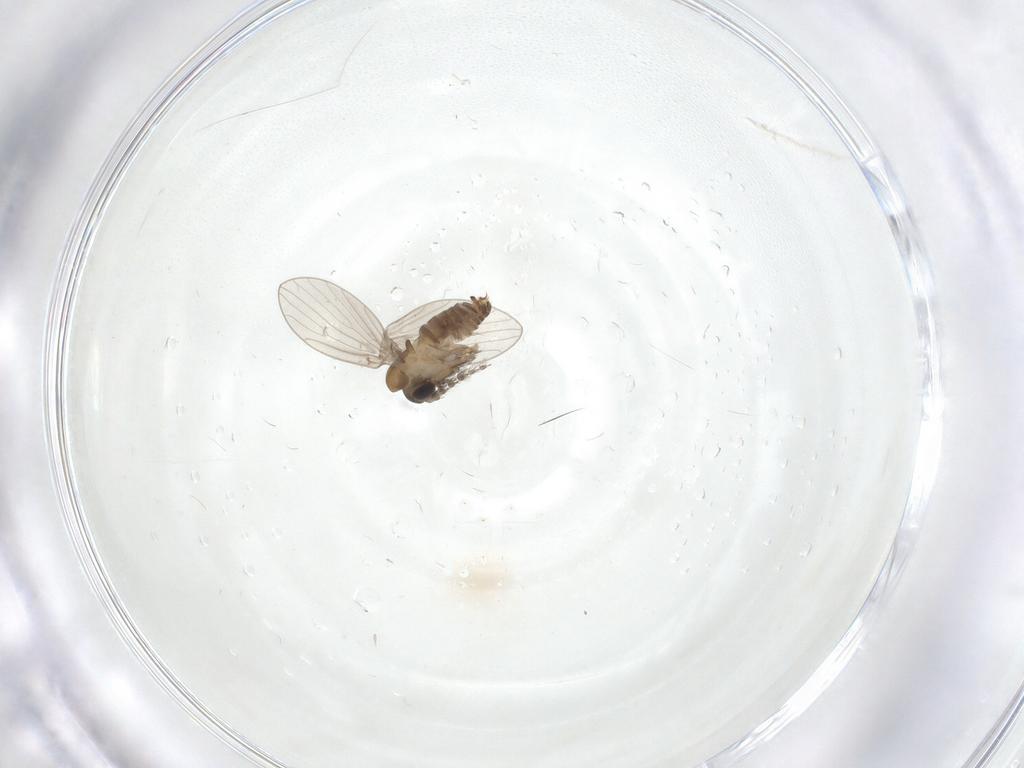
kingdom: Animalia
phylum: Arthropoda
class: Insecta
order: Diptera
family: Psychodidae
